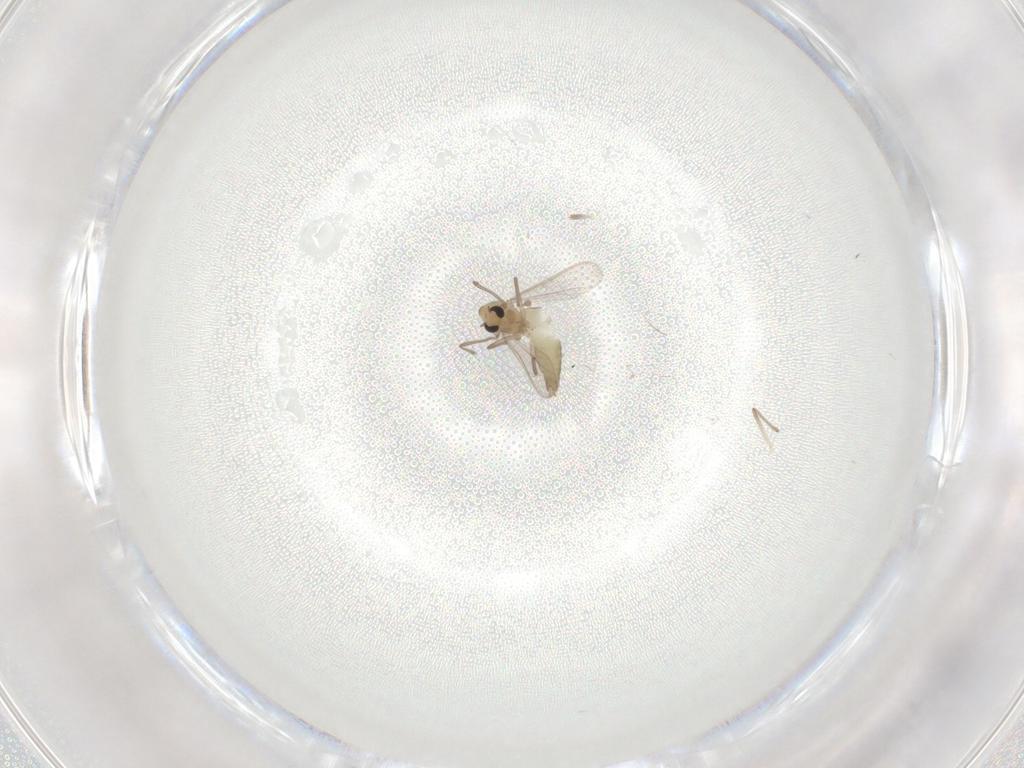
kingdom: Animalia
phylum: Arthropoda
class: Insecta
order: Diptera
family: Chironomidae
